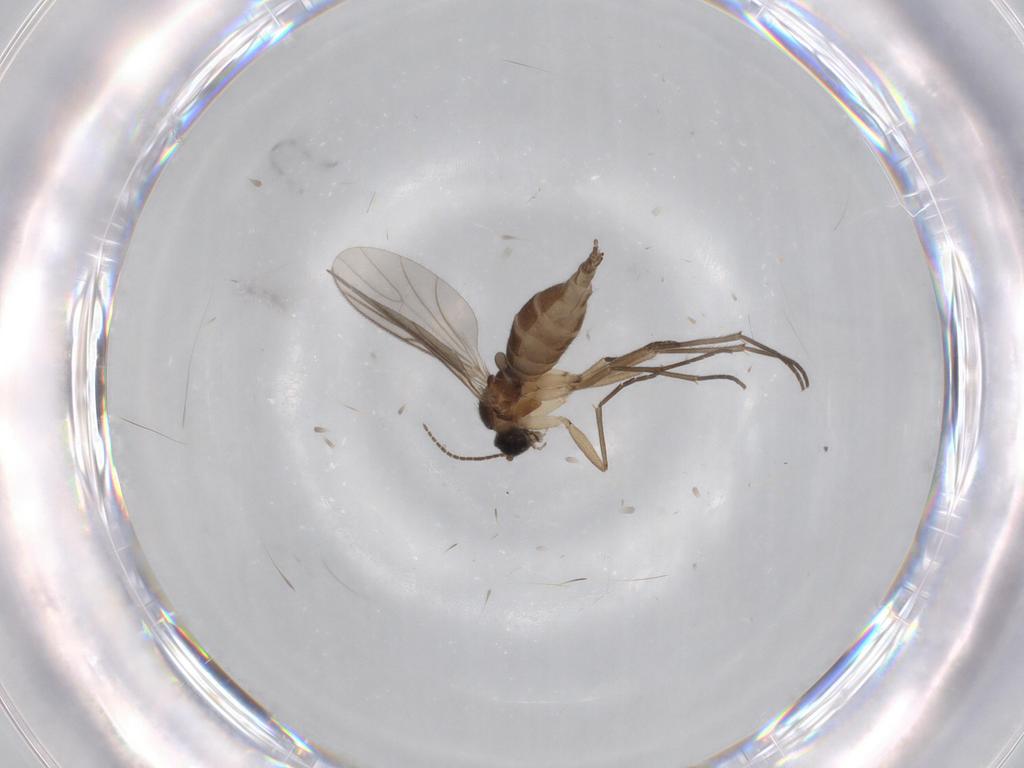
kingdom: Animalia
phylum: Arthropoda
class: Insecta
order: Diptera
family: Sciaridae
